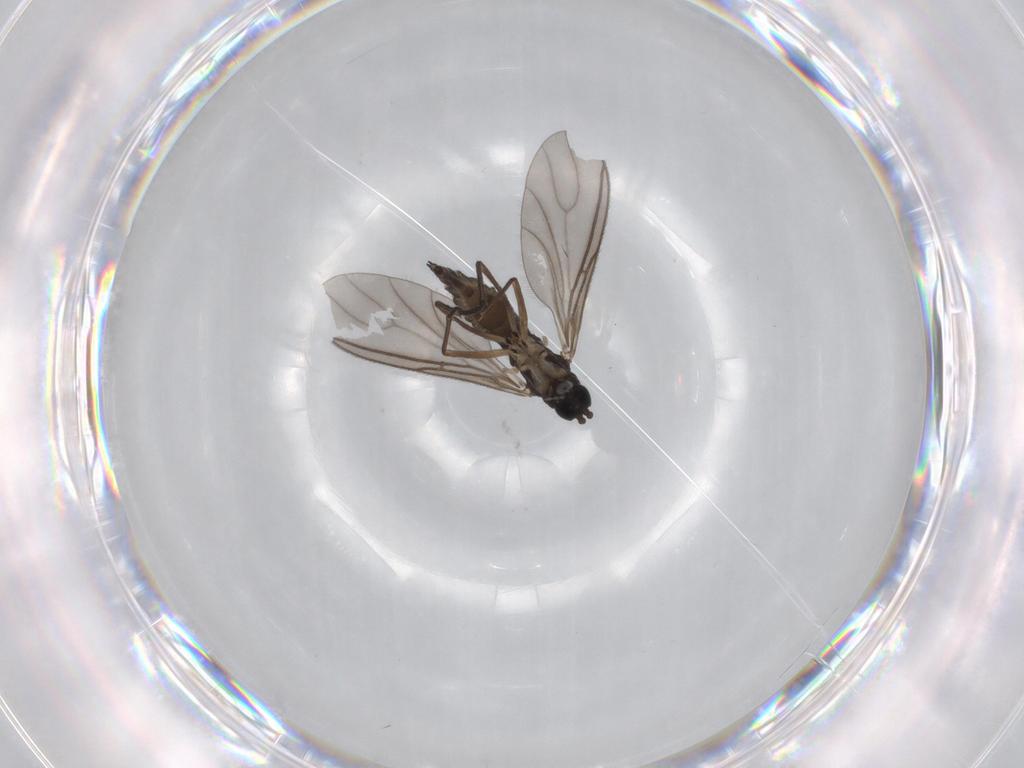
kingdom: Animalia
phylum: Arthropoda
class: Insecta
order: Diptera
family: Sciaridae
